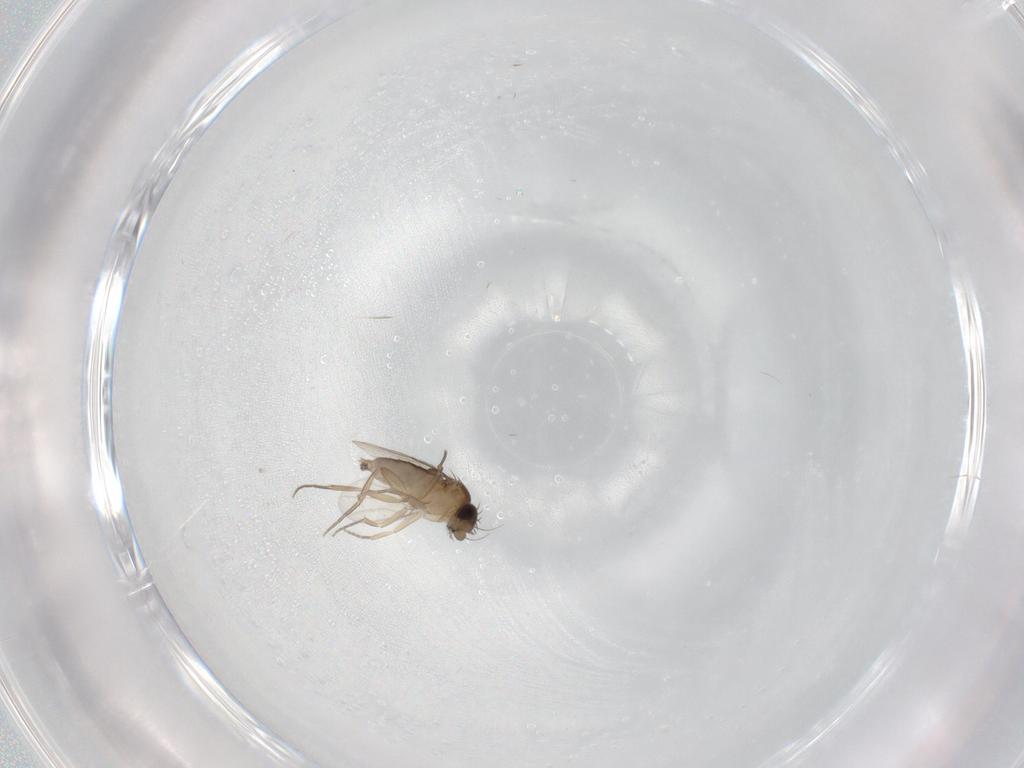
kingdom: Animalia
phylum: Arthropoda
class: Insecta
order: Diptera
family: Phoridae
